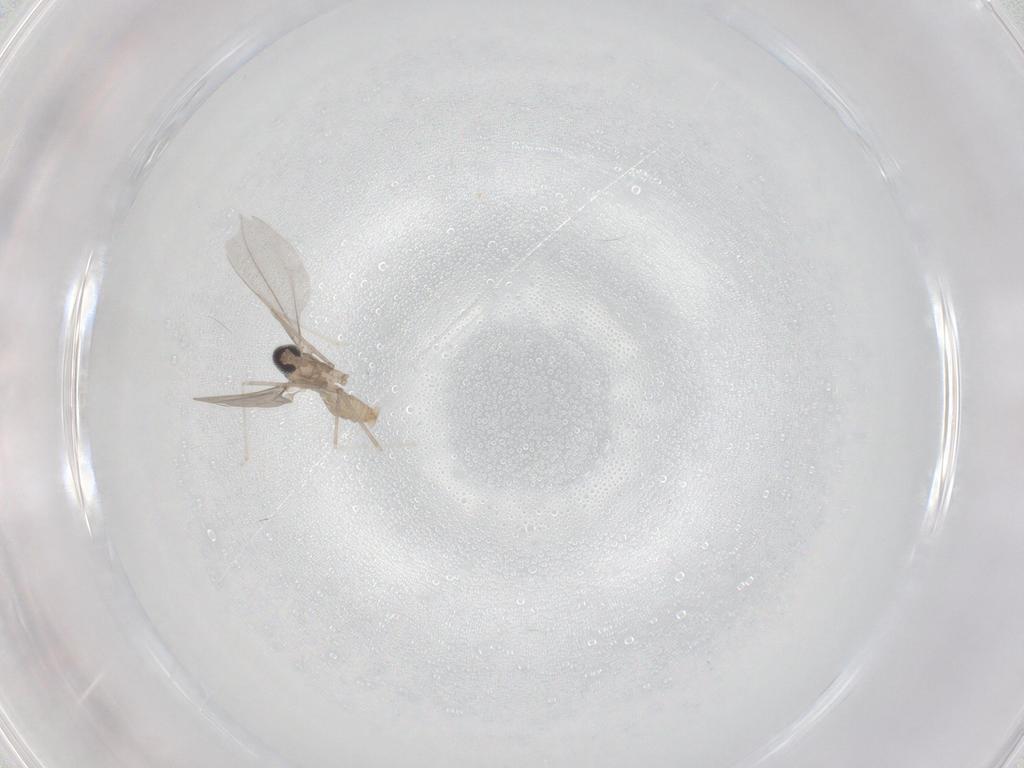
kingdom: Animalia
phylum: Arthropoda
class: Insecta
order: Diptera
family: Cecidomyiidae
